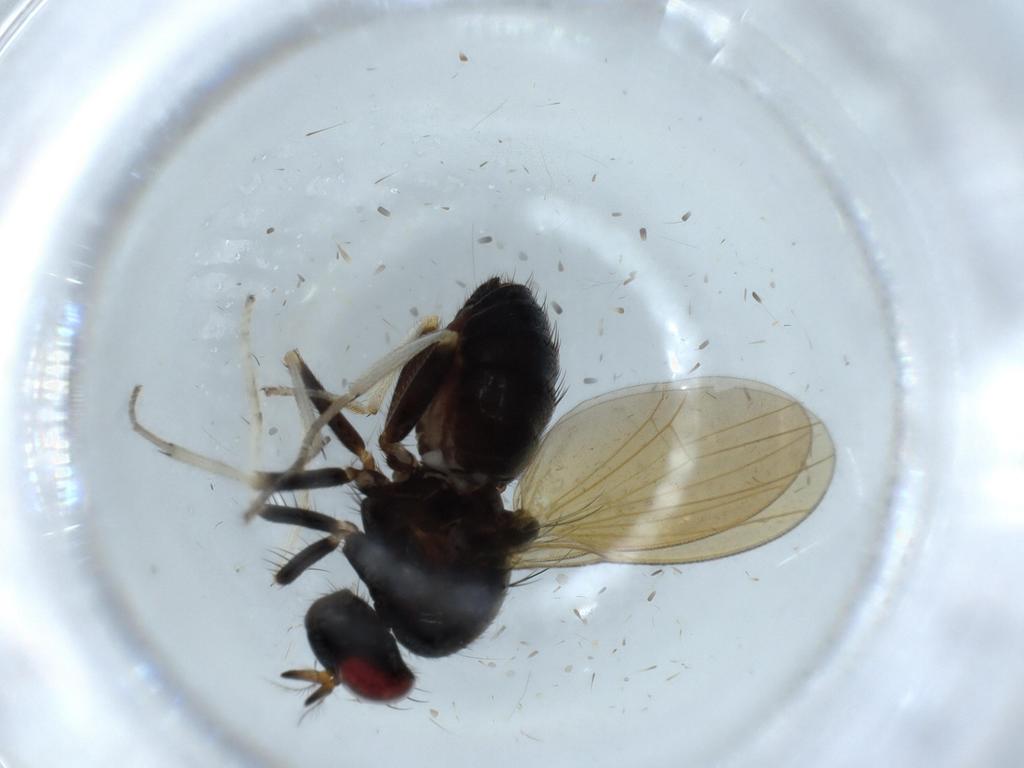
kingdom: Animalia
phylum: Arthropoda
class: Insecta
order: Diptera
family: Lauxaniidae
